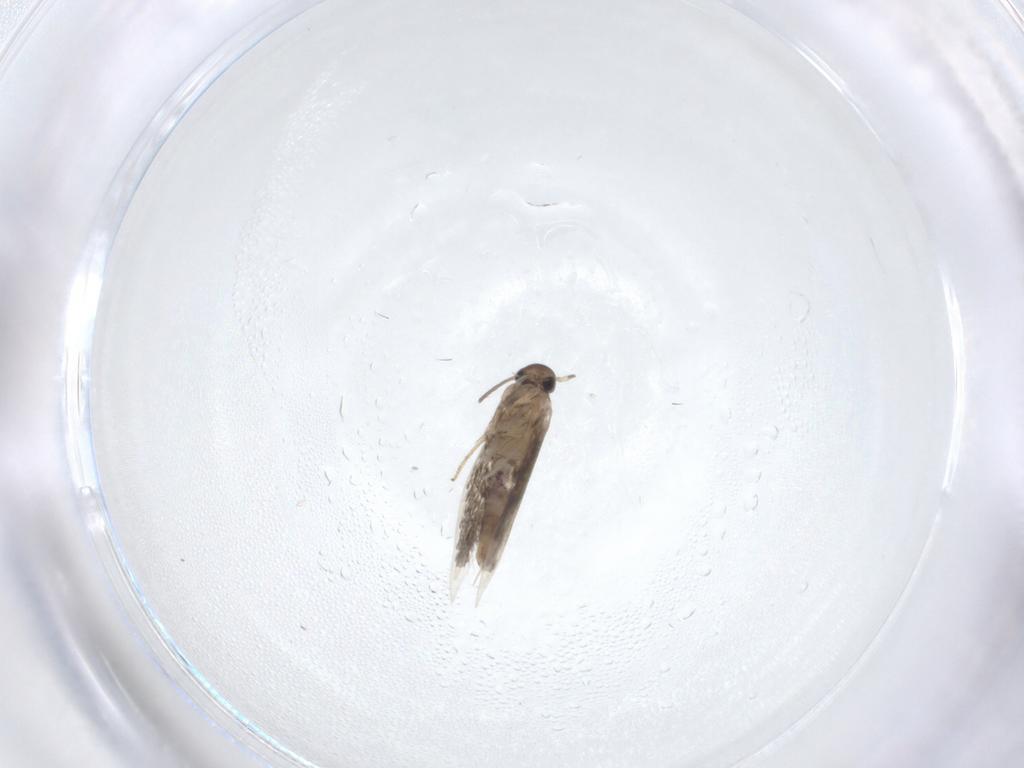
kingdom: Animalia
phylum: Arthropoda
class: Insecta
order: Lepidoptera
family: Heliozelidae
